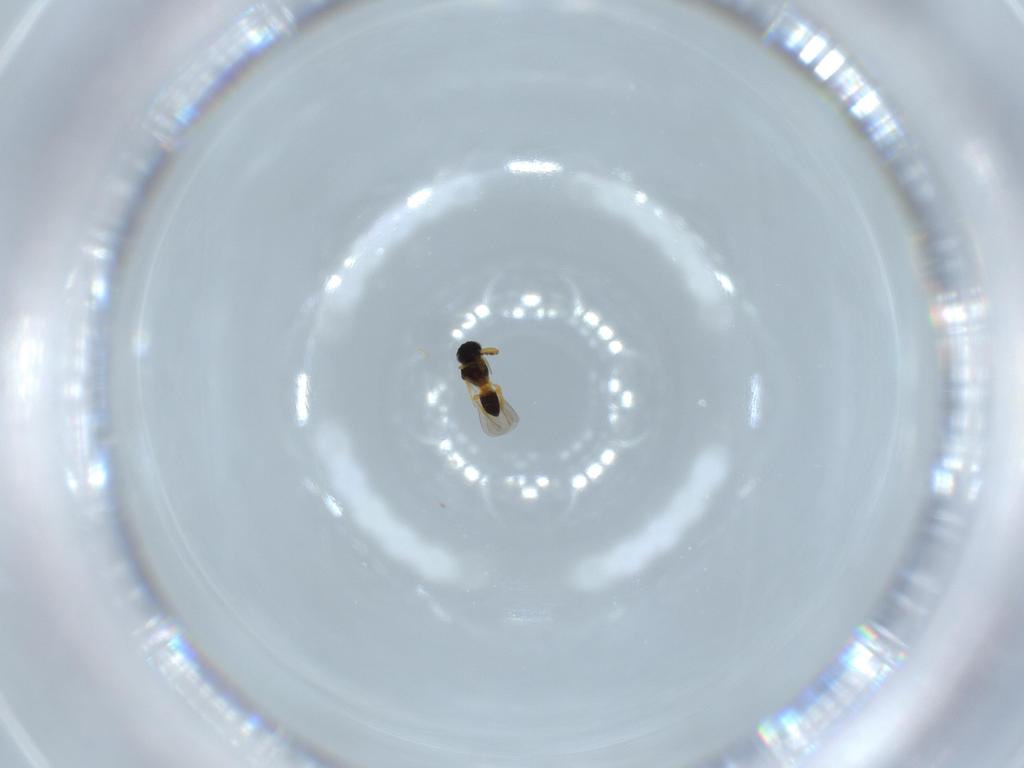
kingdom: Animalia
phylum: Arthropoda
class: Insecta
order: Hymenoptera
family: Platygastridae
